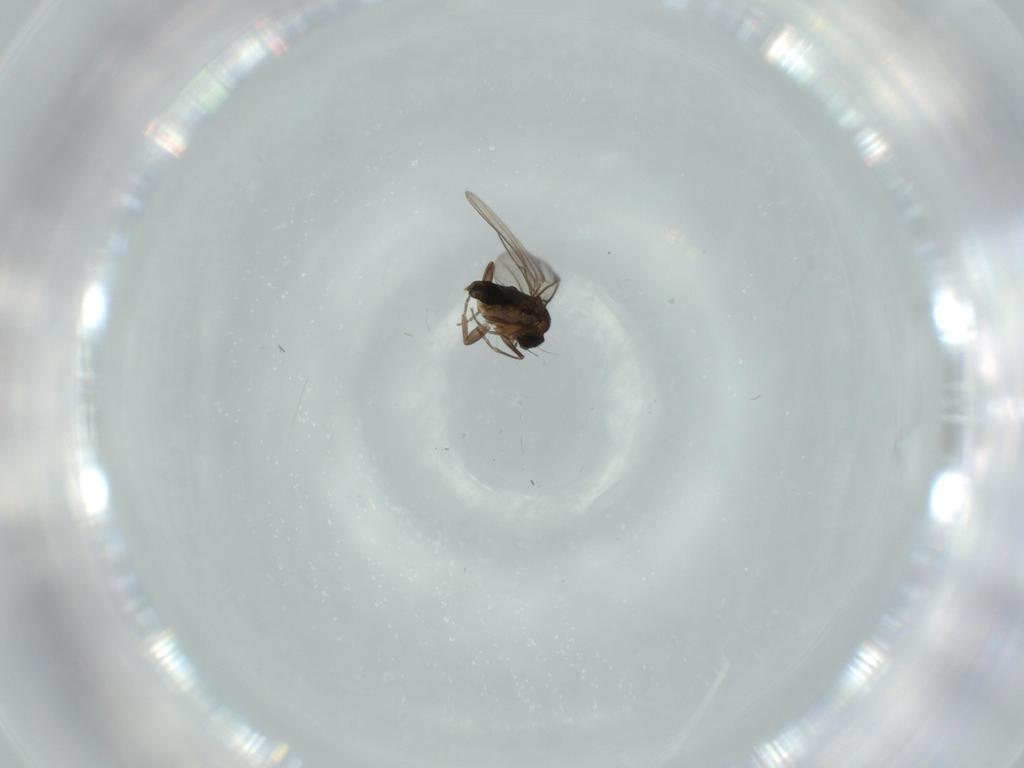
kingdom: Animalia
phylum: Arthropoda
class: Insecta
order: Diptera
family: Phoridae
